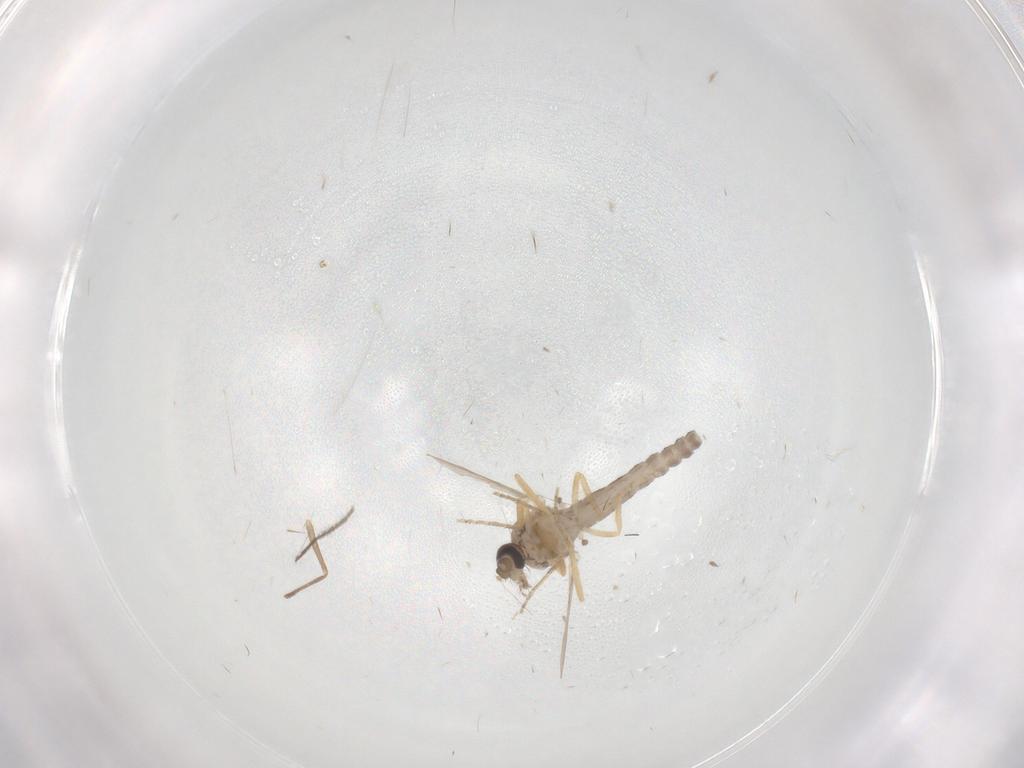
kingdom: Animalia
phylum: Arthropoda
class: Insecta
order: Diptera
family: Ceratopogonidae
